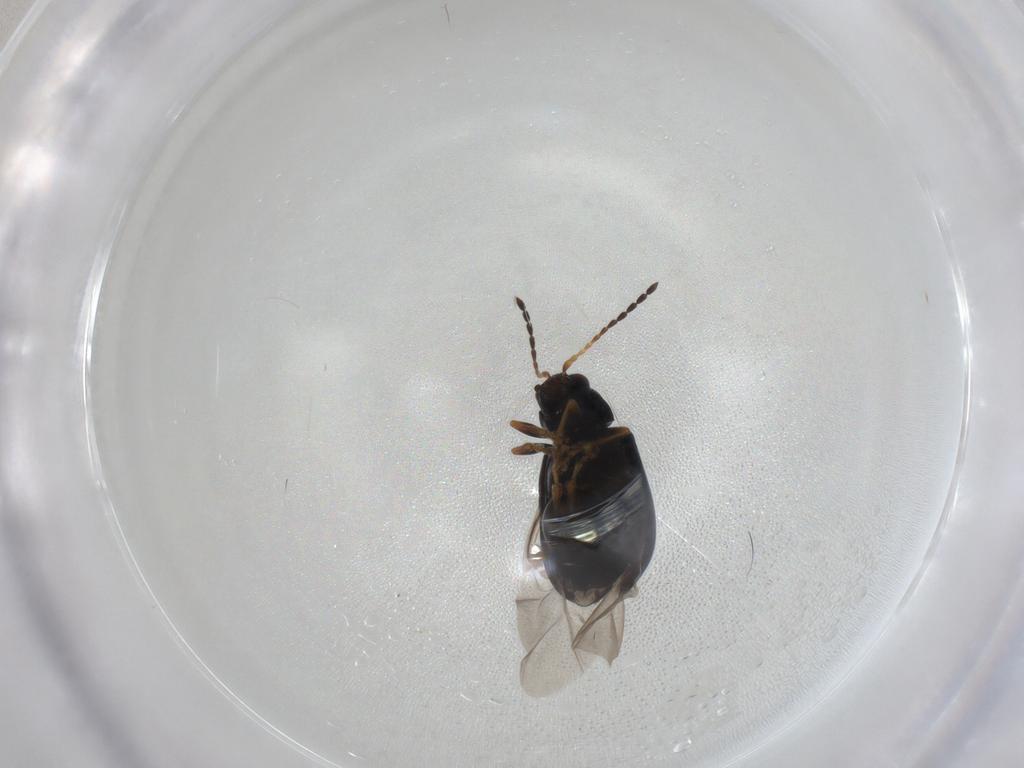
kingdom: Animalia
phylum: Arthropoda
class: Insecta
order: Coleoptera
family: Chrysomelidae
